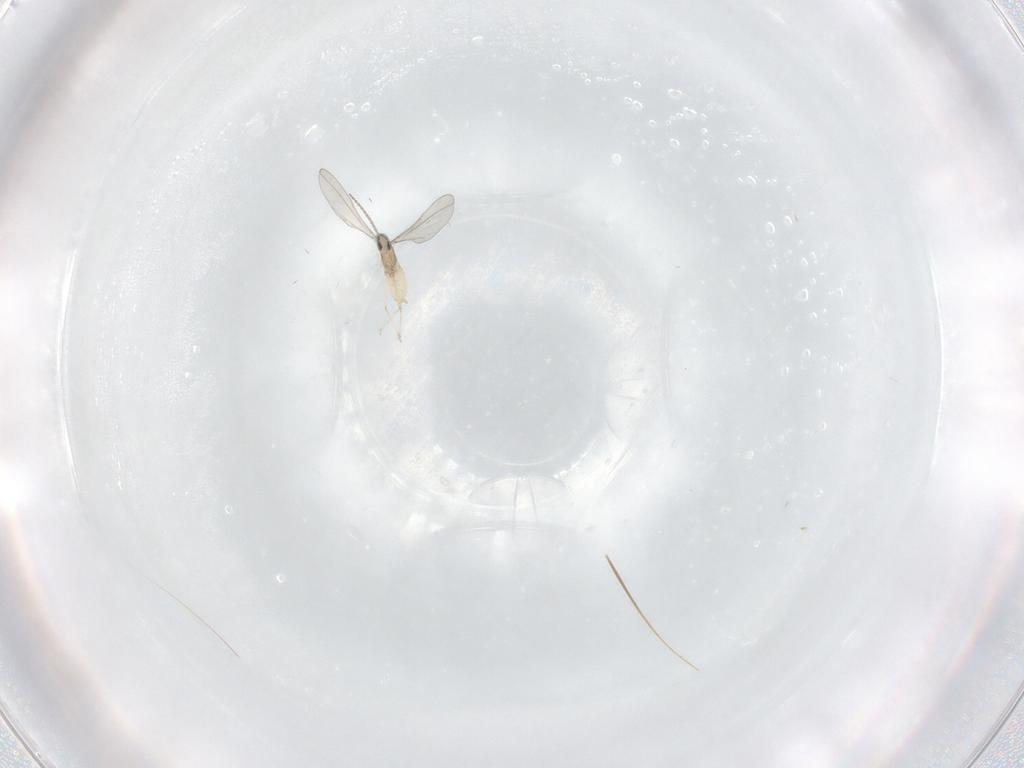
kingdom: Animalia
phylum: Arthropoda
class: Insecta
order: Diptera
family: Cecidomyiidae
